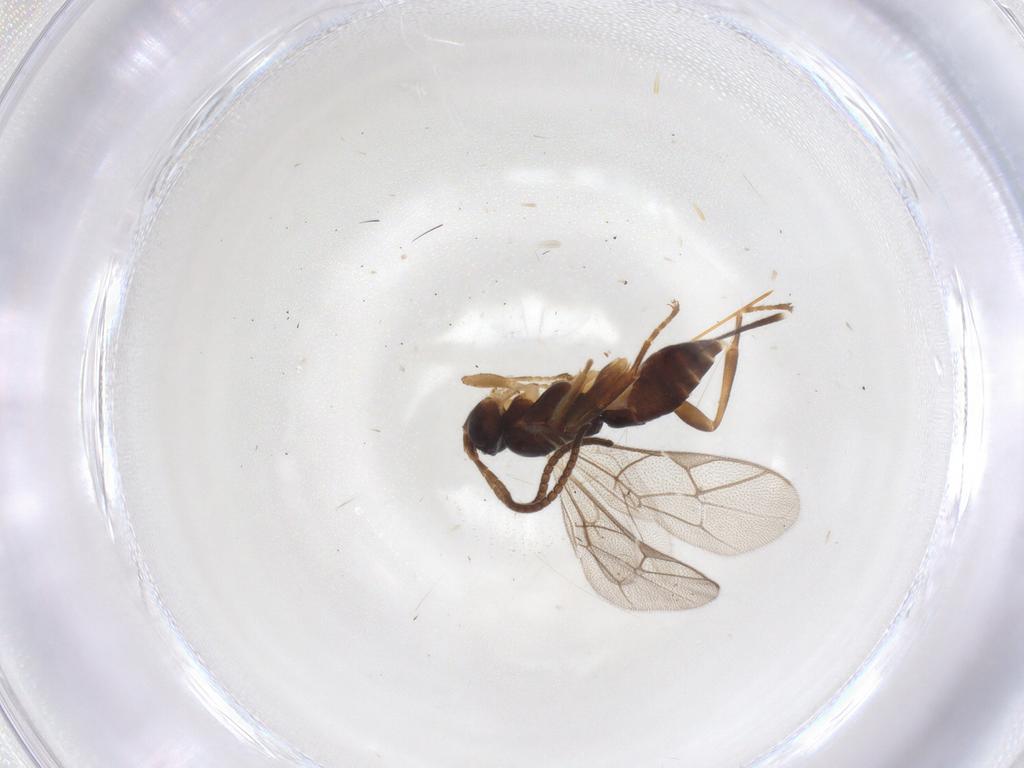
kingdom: Animalia
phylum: Arthropoda
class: Insecta
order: Hymenoptera
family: Ichneumonidae
